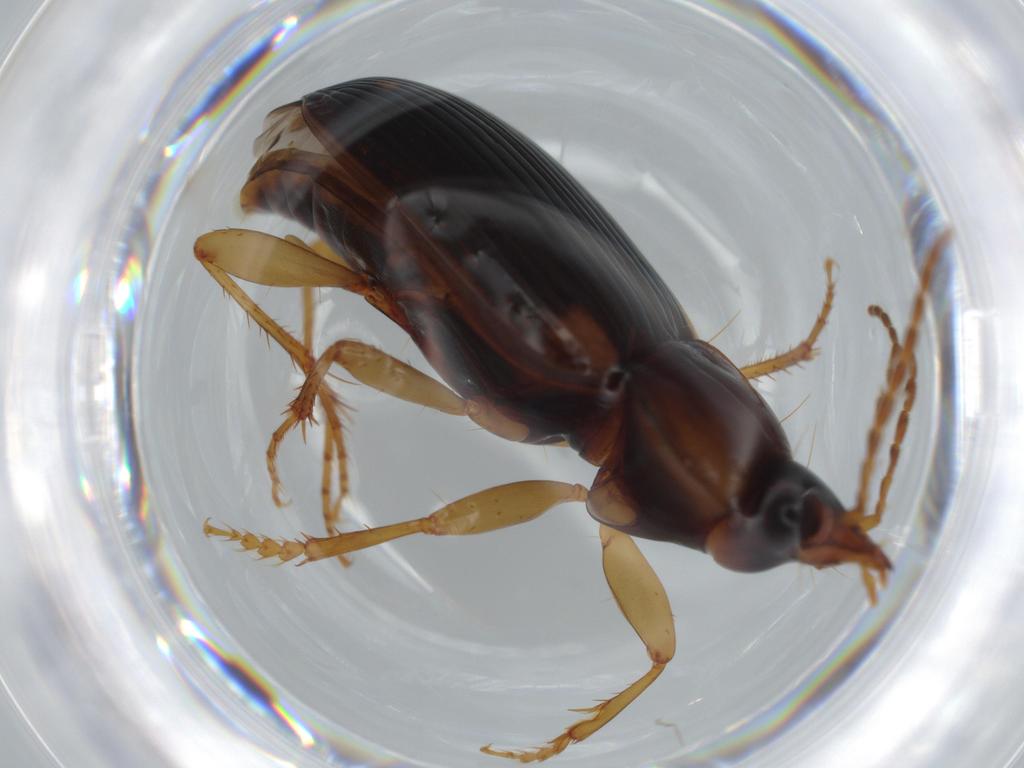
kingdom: Animalia
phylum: Arthropoda
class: Insecta
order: Coleoptera
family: Carabidae
